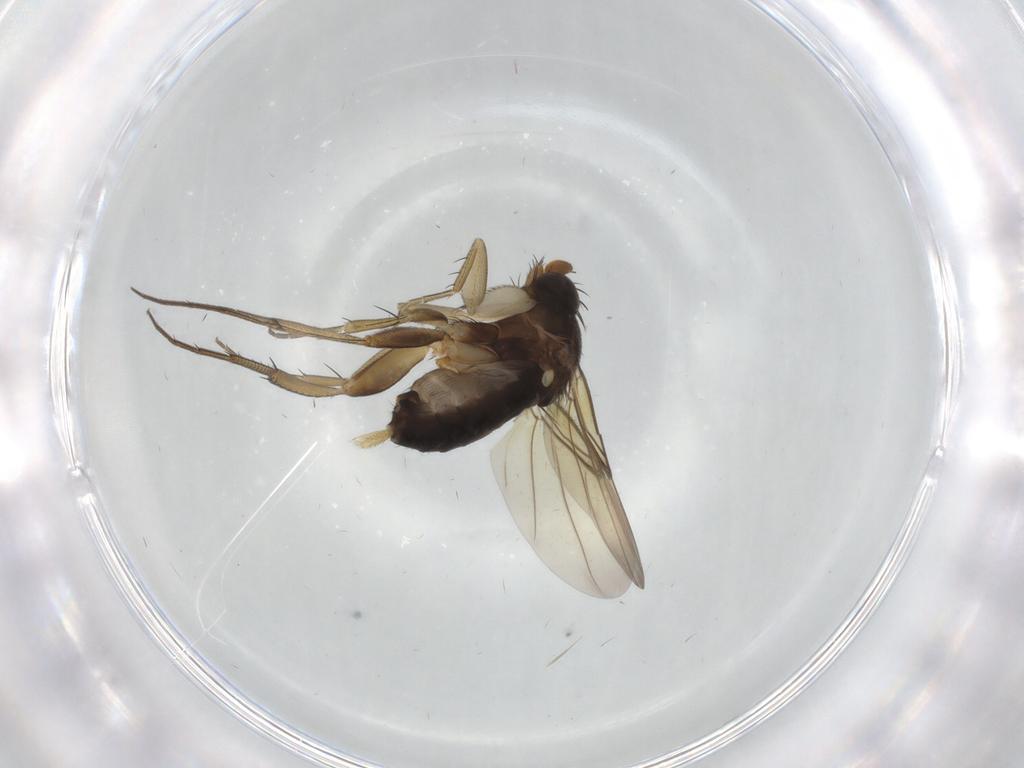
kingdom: Animalia
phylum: Arthropoda
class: Insecta
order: Diptera
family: Phoridae
